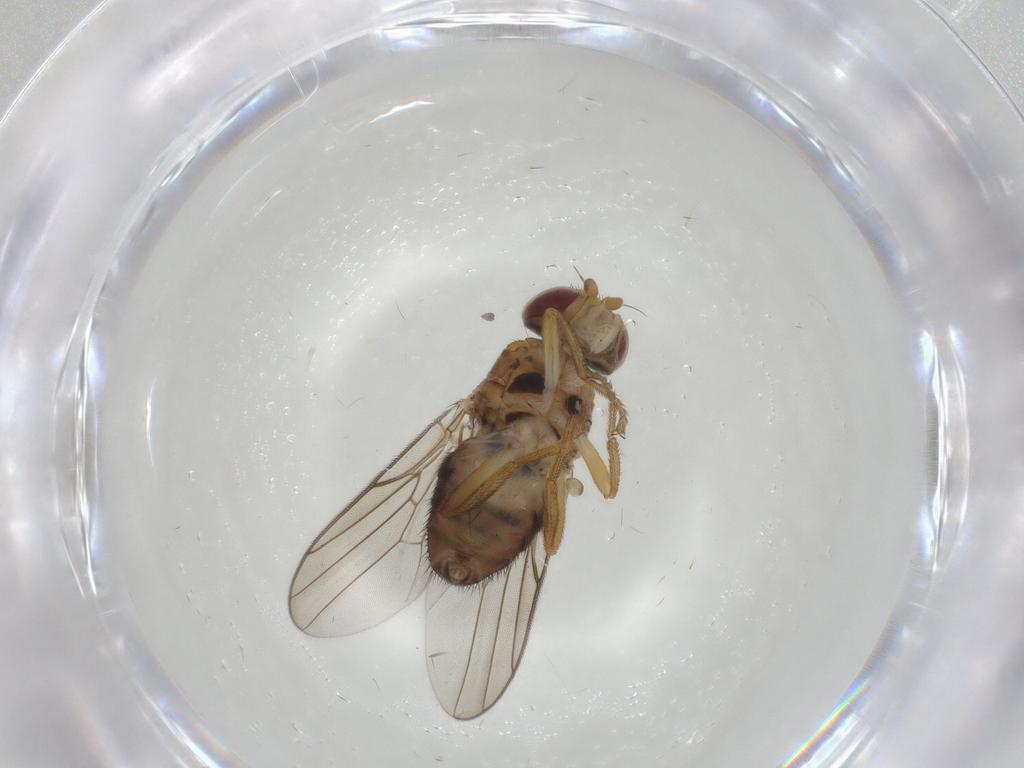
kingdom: Animalia
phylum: Arthropoda
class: Insecta
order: Diptera
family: Chloropidae
